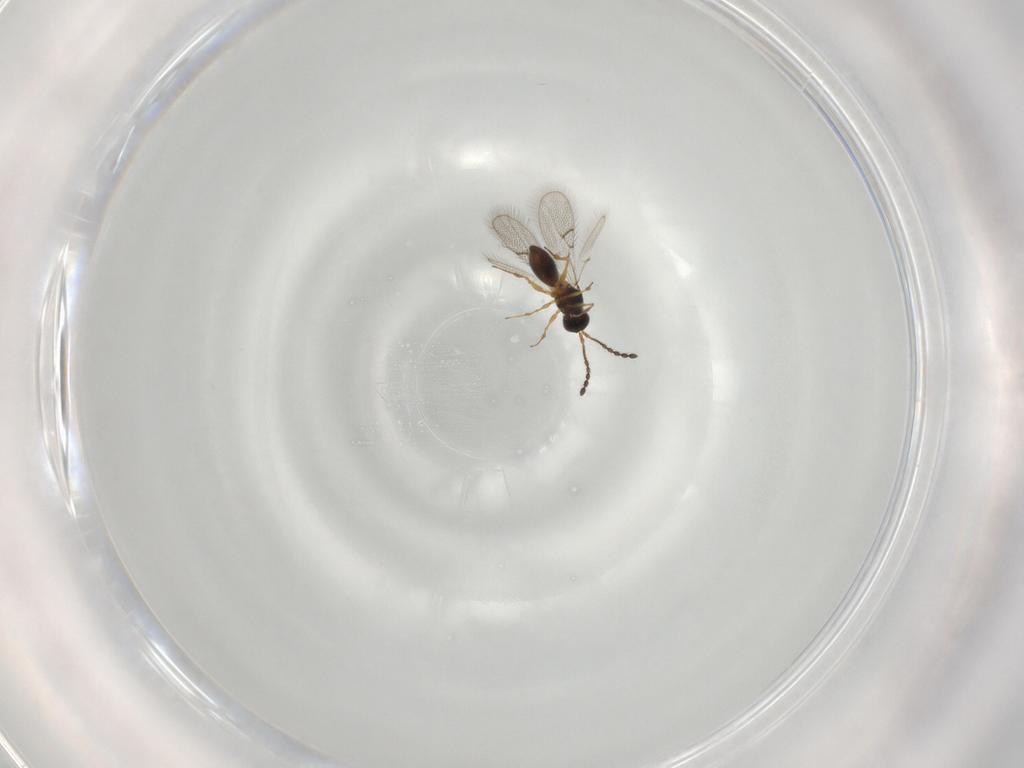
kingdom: Animalia
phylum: Arthropoda
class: Insecta
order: Hymenoptera
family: Figitidae
